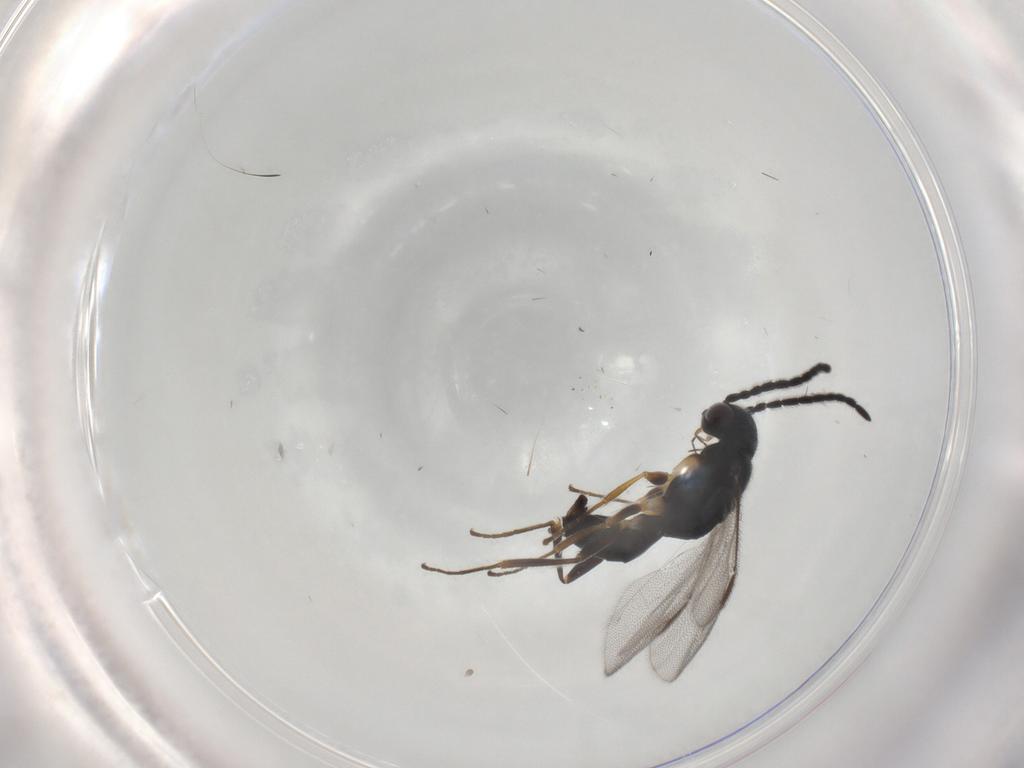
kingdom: Animalia
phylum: Arthropoda
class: Insecta
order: Hymenoptera
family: Dryinidae
